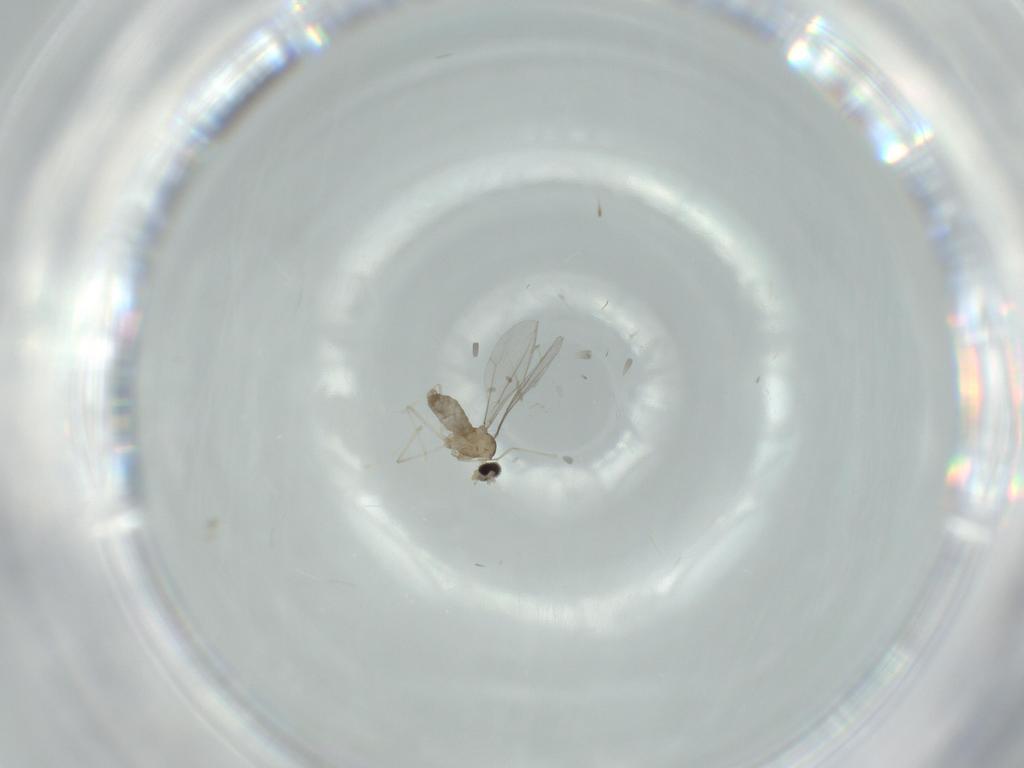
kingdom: Animalia
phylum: Arthropoda
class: Insecta
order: Diptera
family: Cecidomyiidae
